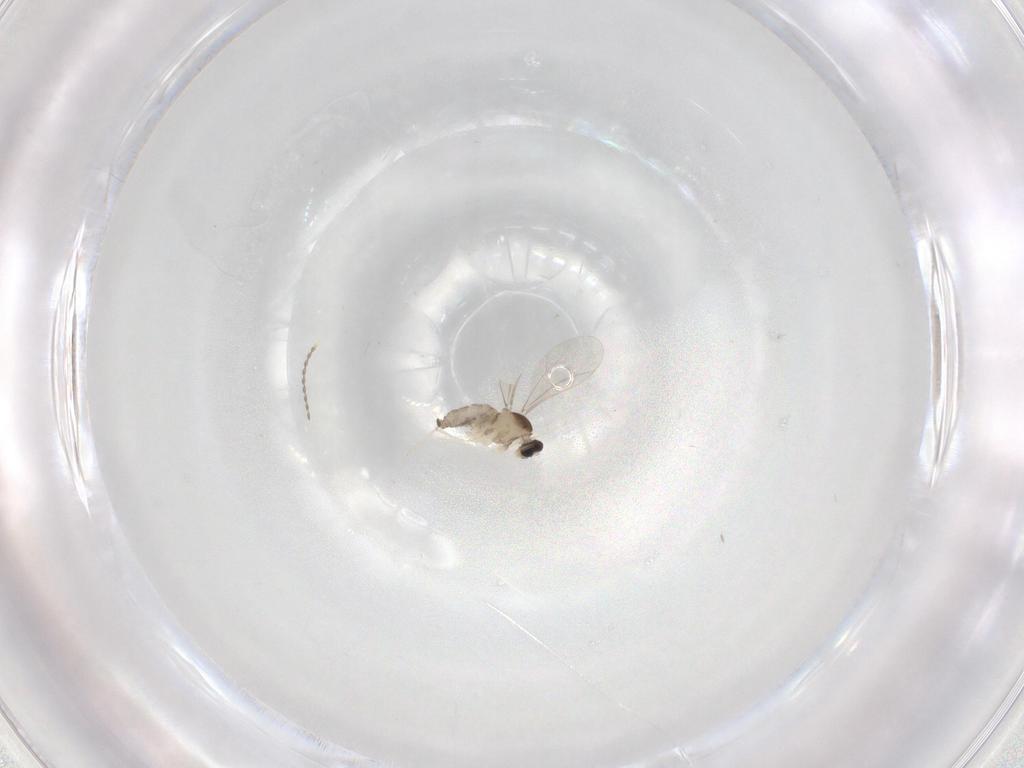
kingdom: Animalia
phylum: Arthropoda
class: Insecta
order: Diptera
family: Cecidomyiidae
